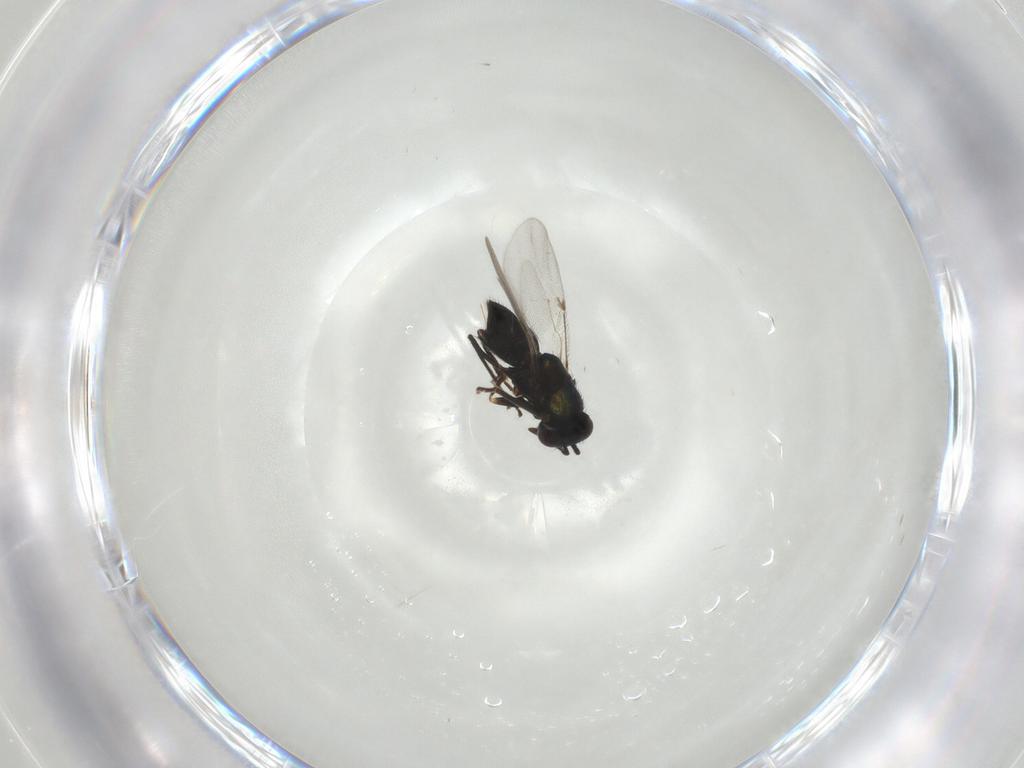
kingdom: Animalia
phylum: Arthropoda
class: Insecta
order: Hymenoptera
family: Encyrtidae
